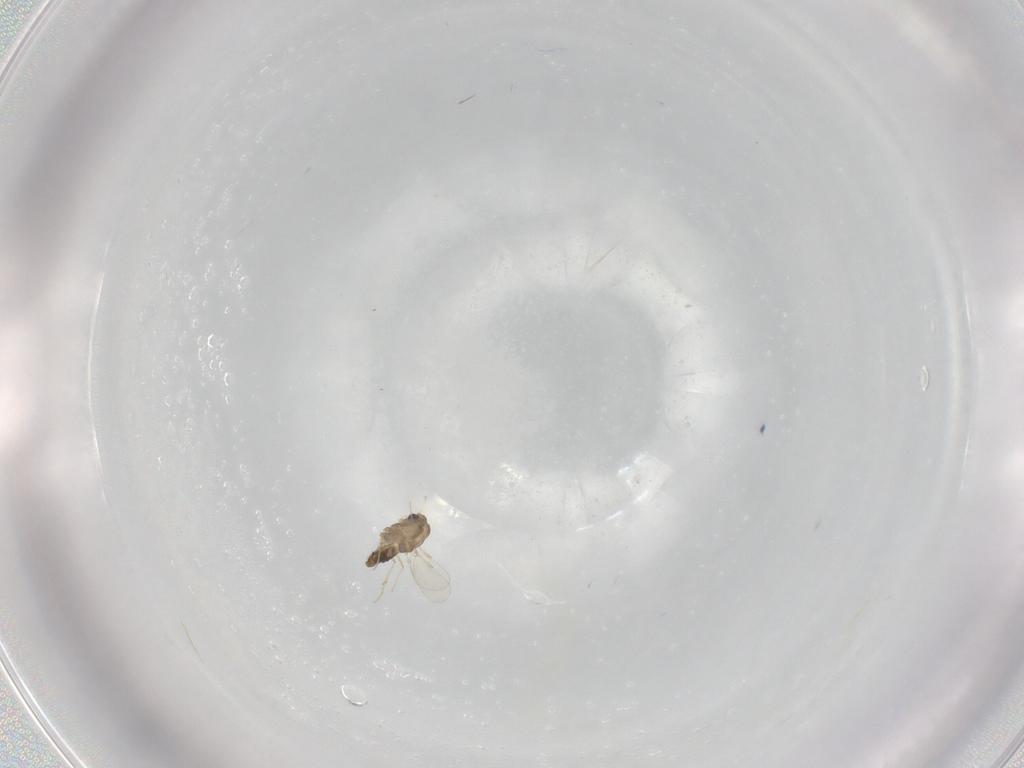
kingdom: Animalia
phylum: Arthropoda
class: Insecta
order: Diptera
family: Chironomidae
